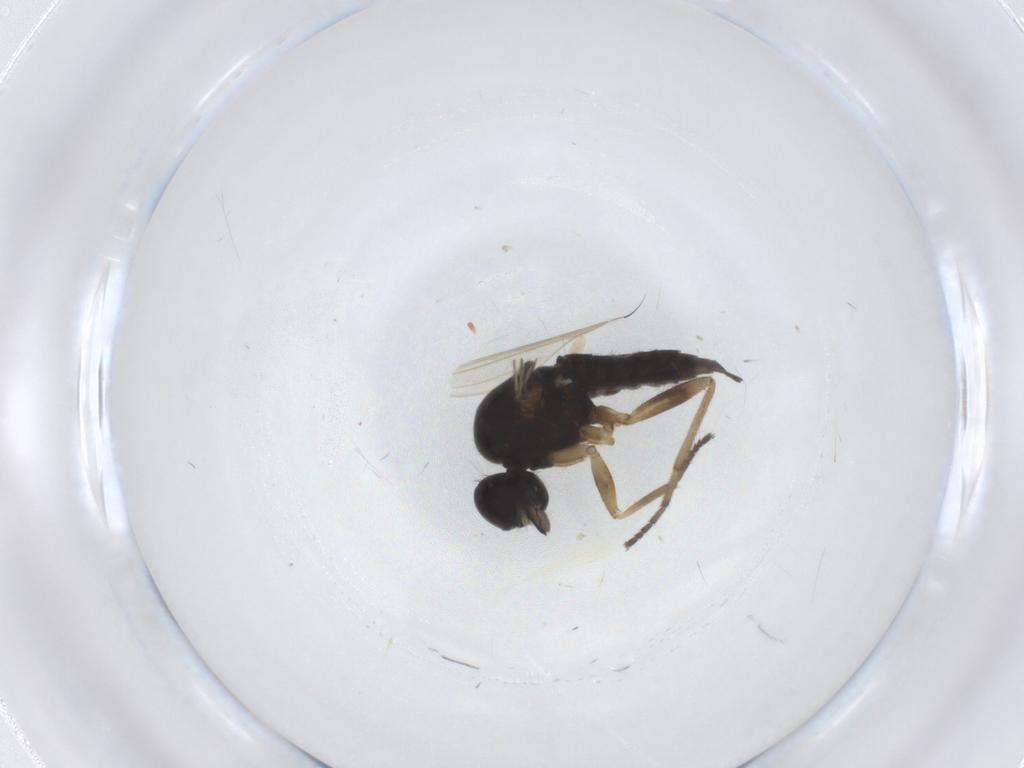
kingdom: Animalia
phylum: Arthropoda
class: Insecta
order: Diptera
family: Empididae
